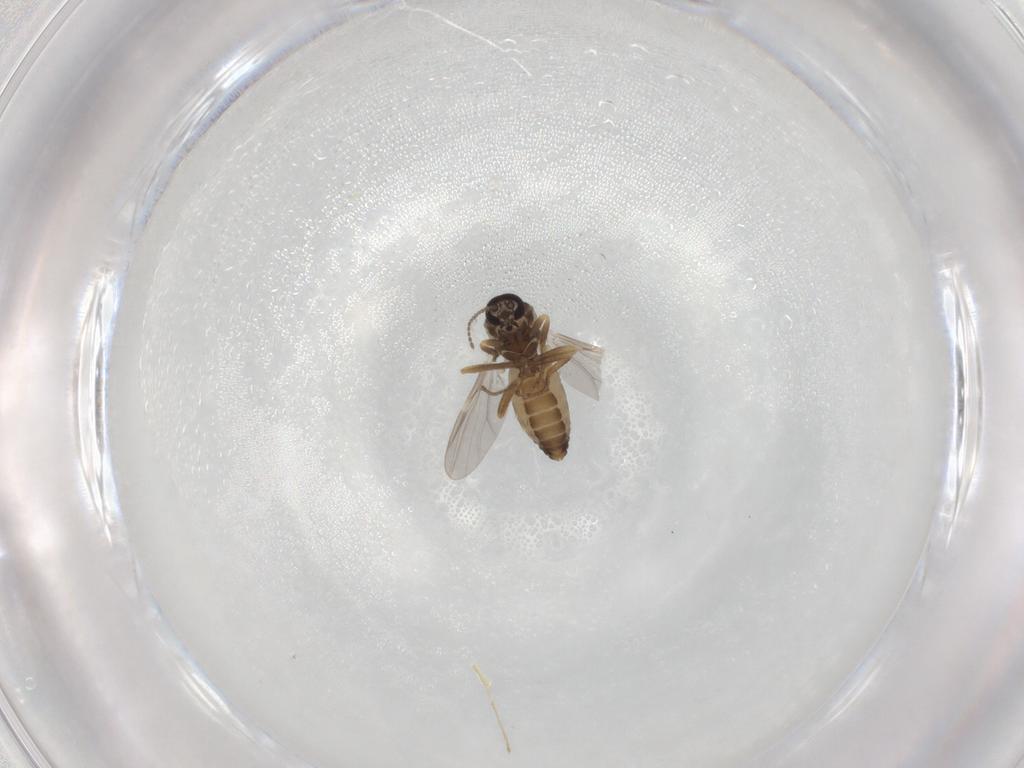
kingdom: Animalia
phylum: Arthropoda
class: Insecta
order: Diptera
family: Ceratopogonidae
